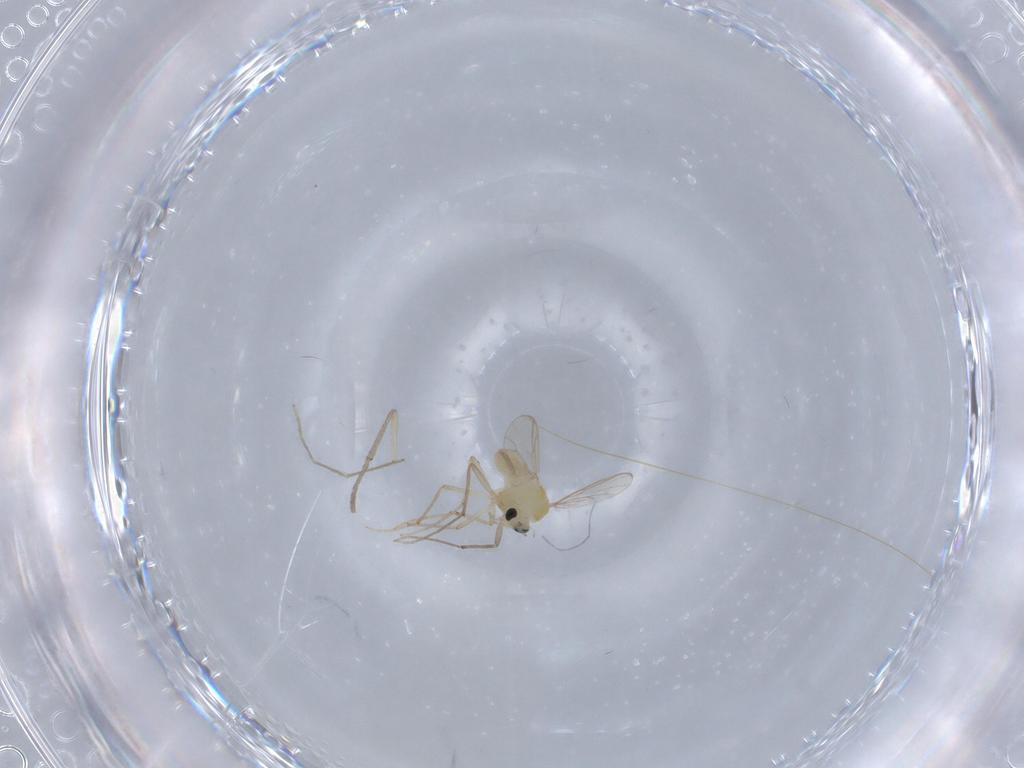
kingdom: Animalia
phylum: Arthropoda
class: Insecta
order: Diptera
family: Chironomidae
